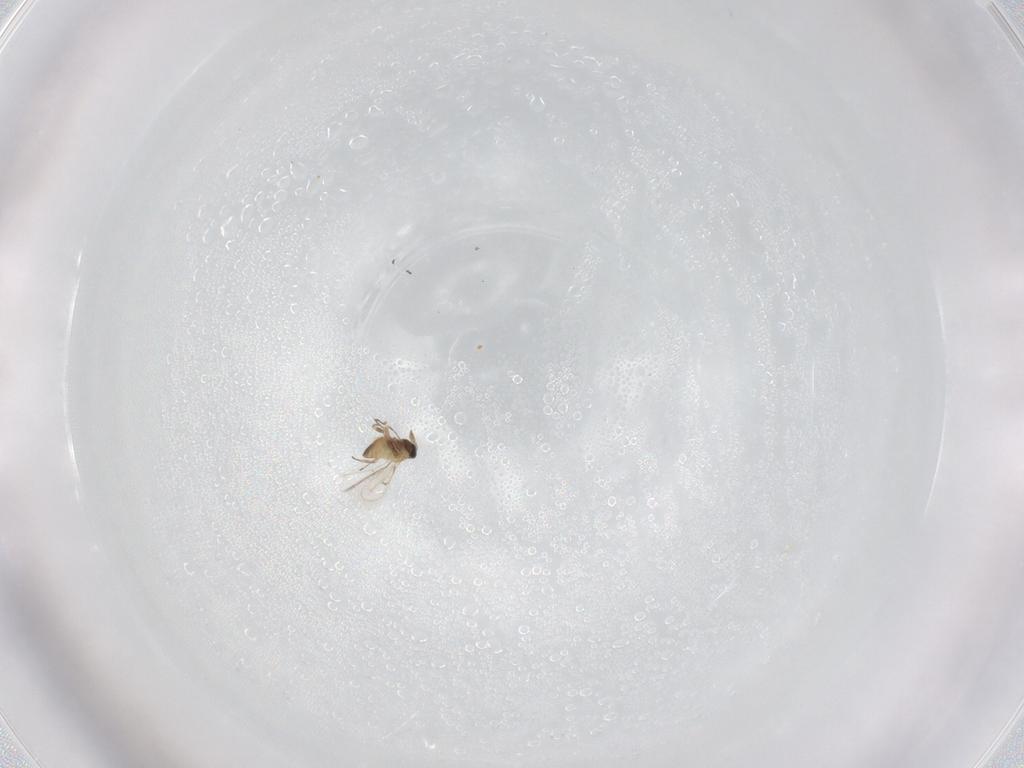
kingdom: Animalia
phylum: Arthropoda
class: Insecta
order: Hymenoptera
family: Trichogrammatidae
